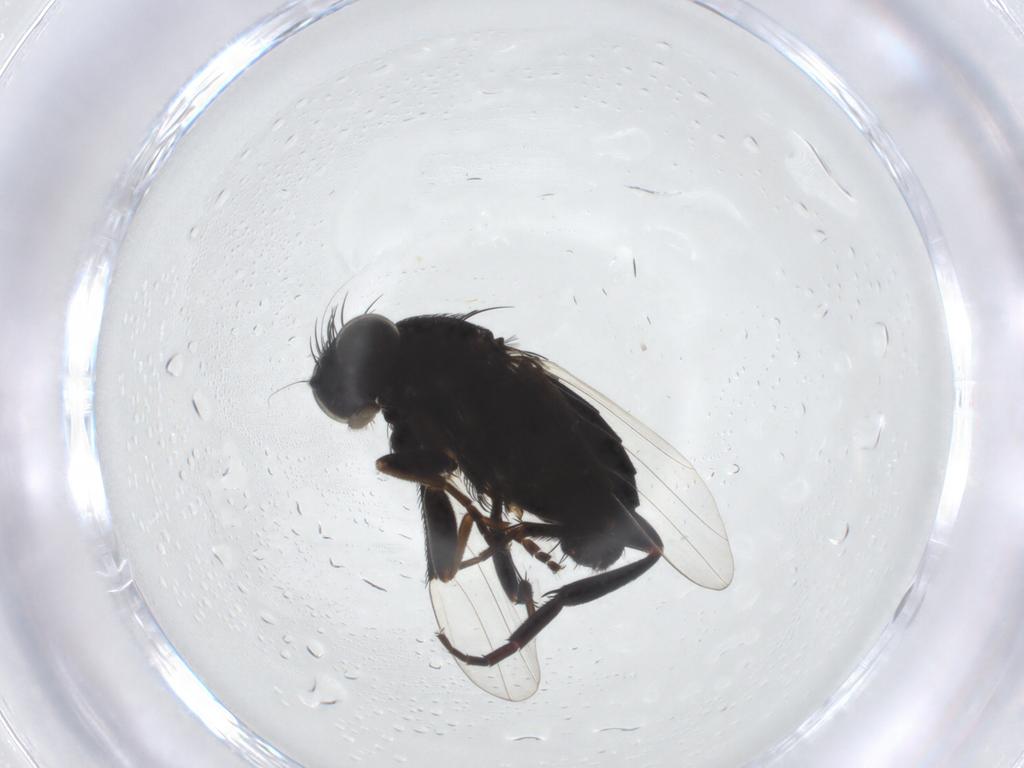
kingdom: Animalia
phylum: Arthropoda
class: Insecta
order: Diptera
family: Phoridae
